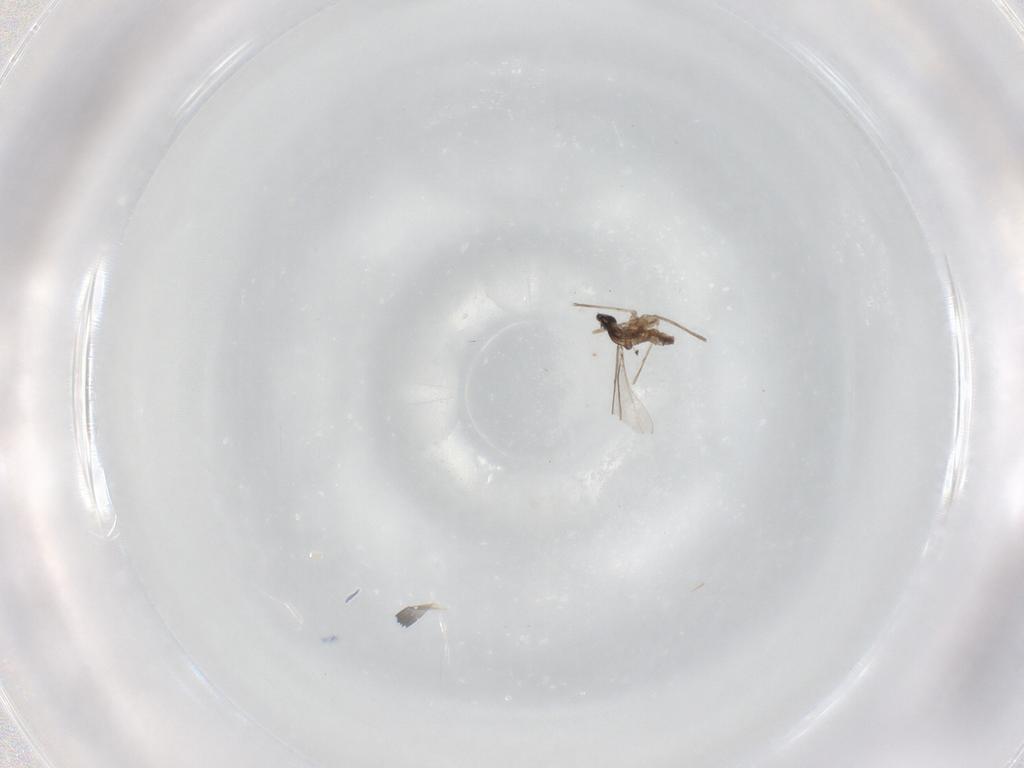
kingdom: Animalia
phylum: Arthropoda
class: Insecta
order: Diptera
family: Cecidomyiidae
